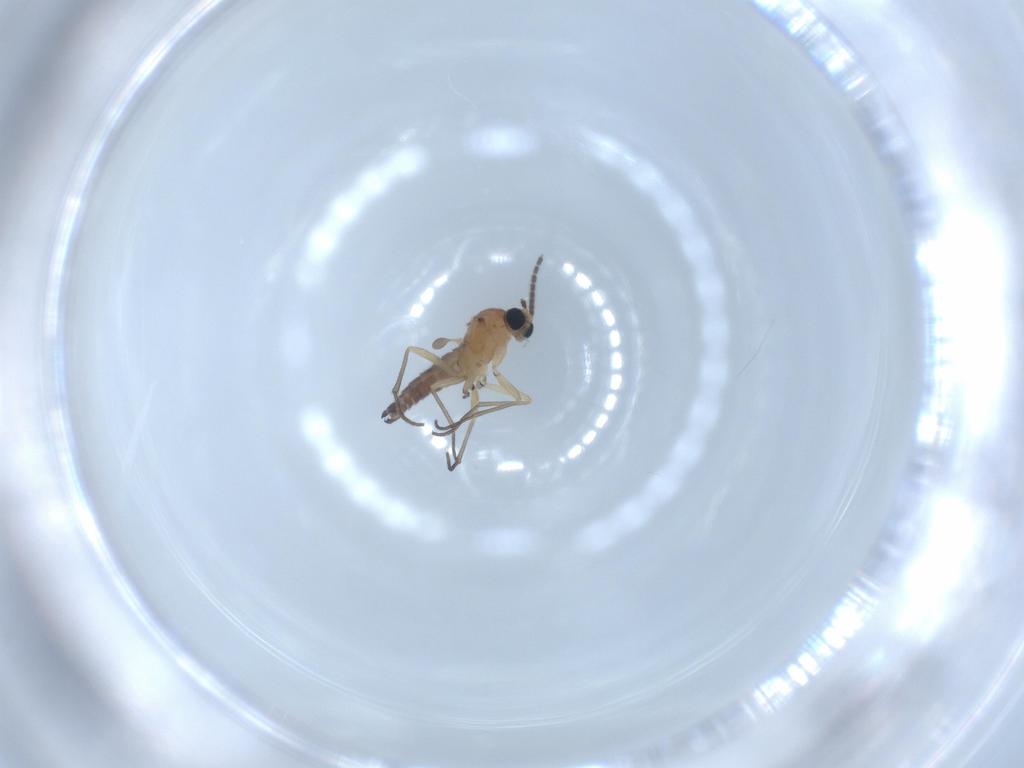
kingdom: Animalia
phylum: Arthropoda
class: Insecta
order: Diptera
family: Sciaridae
